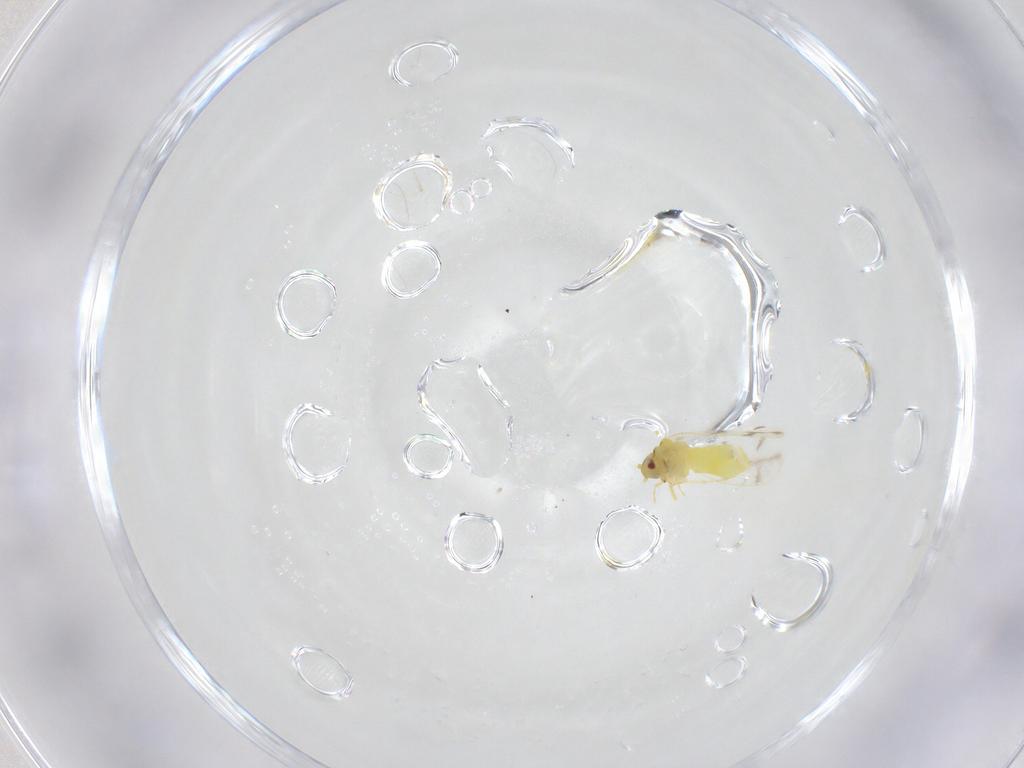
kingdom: Animalia
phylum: Arthropoda
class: Insecta
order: Hemiptera
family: Aleyrodidae
